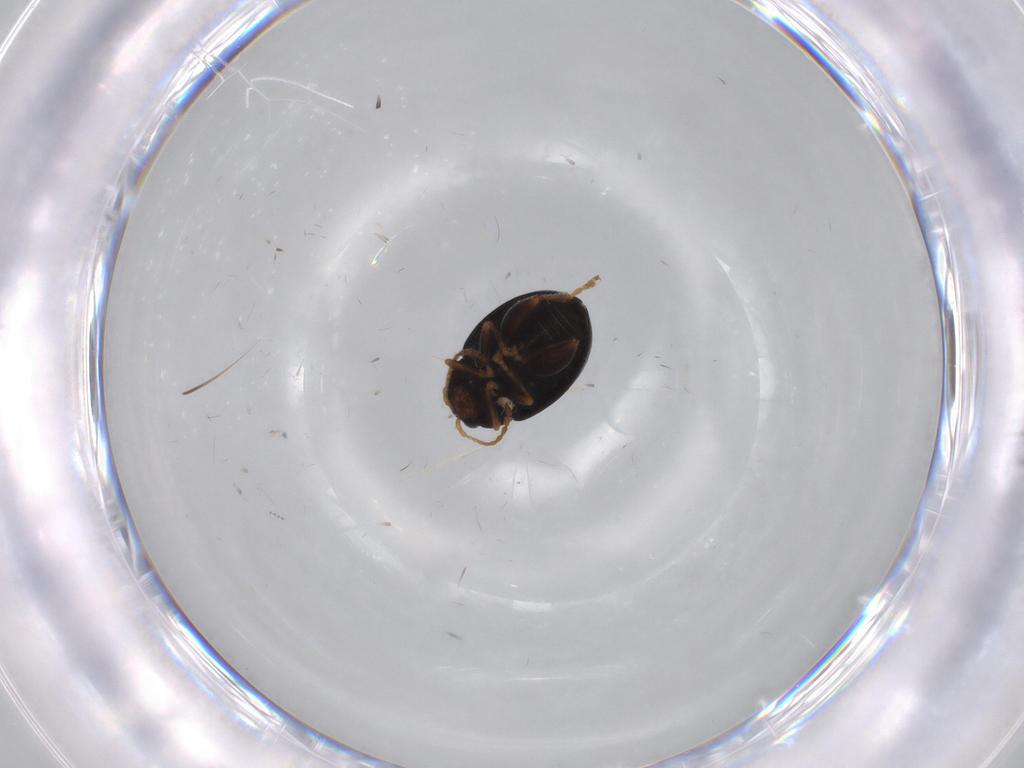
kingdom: Animalia
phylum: Arthropoda
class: Insecta
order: Coleoptera
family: Chrysomelidae
